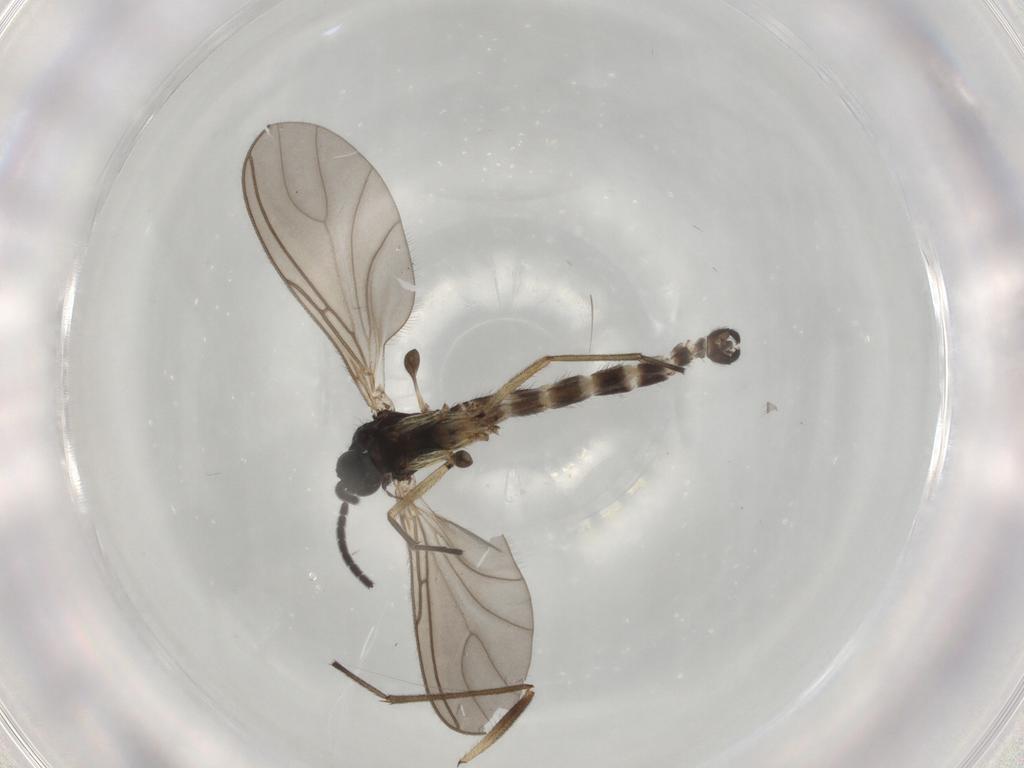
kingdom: Animalia
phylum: Arthropoda
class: Insecta
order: Diptera
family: Sciaridae
